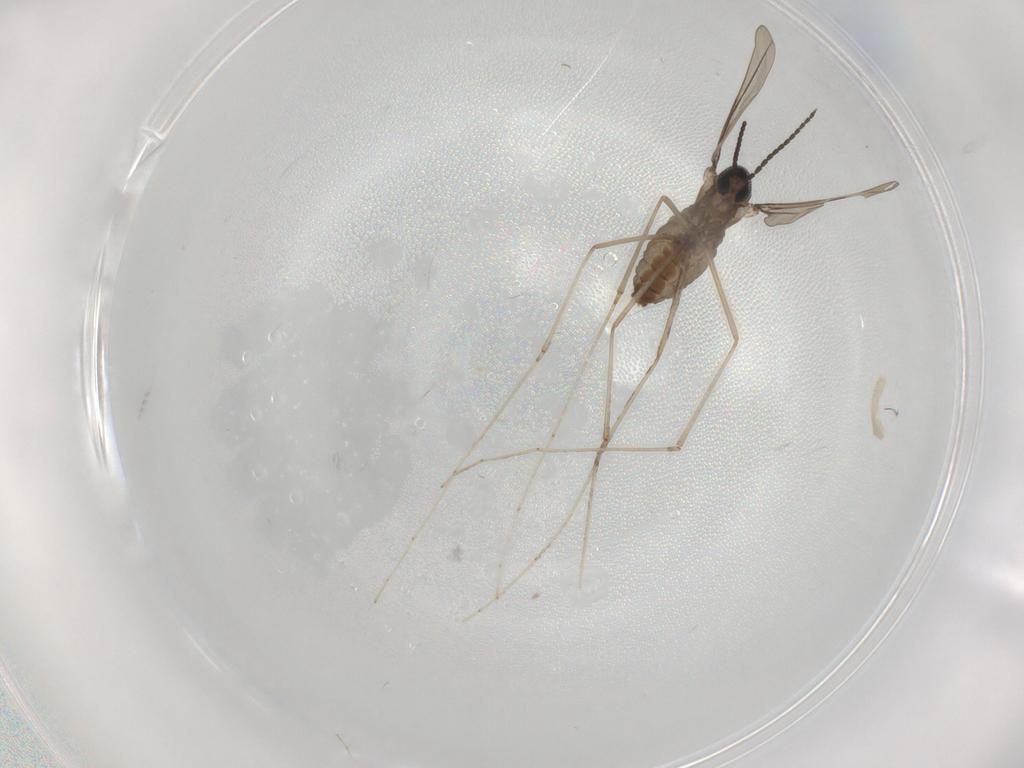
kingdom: Animalia
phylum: Arthropoda
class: Insecta
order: Diptera
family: Cecidomyiidae
